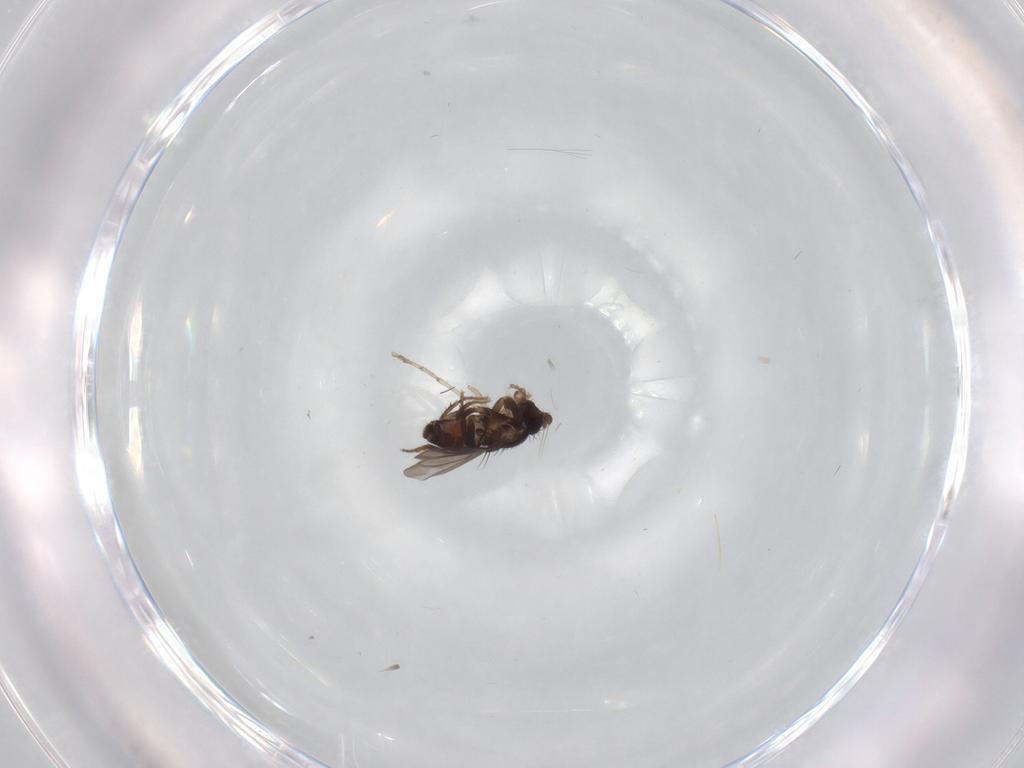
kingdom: Animalia
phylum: Arthropoda
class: Insecta
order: Diptera
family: Sphaeroceridae
